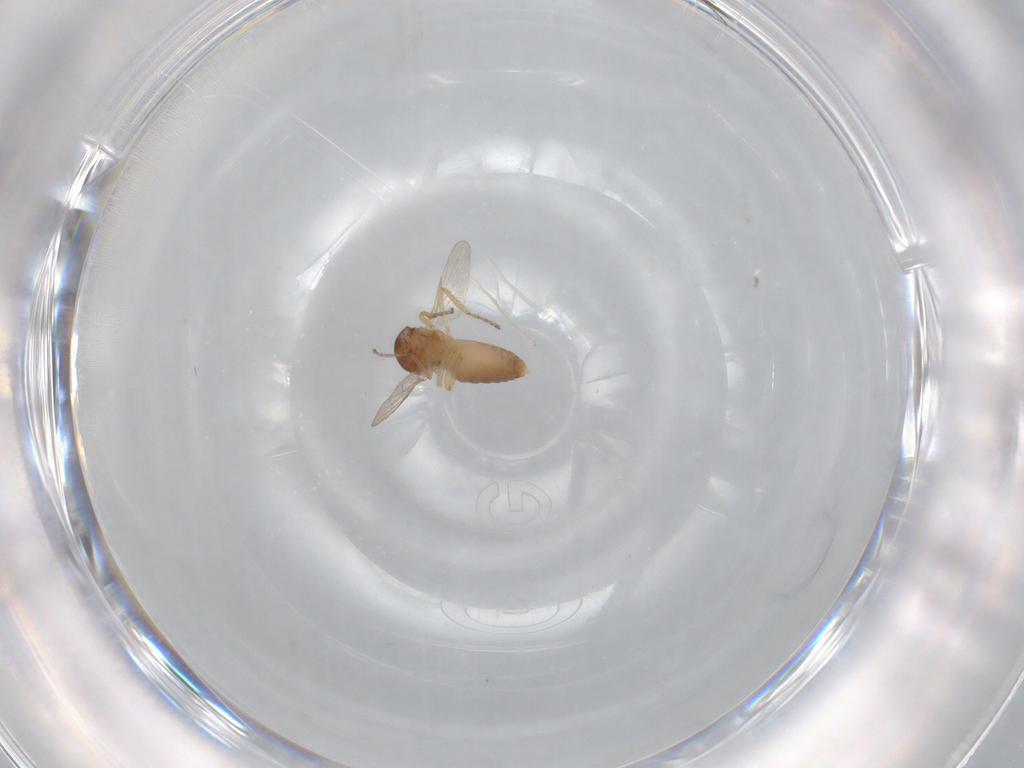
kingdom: Animalia
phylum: Arthropoda
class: Insecta
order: Diptera
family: Ceratopogonidae
